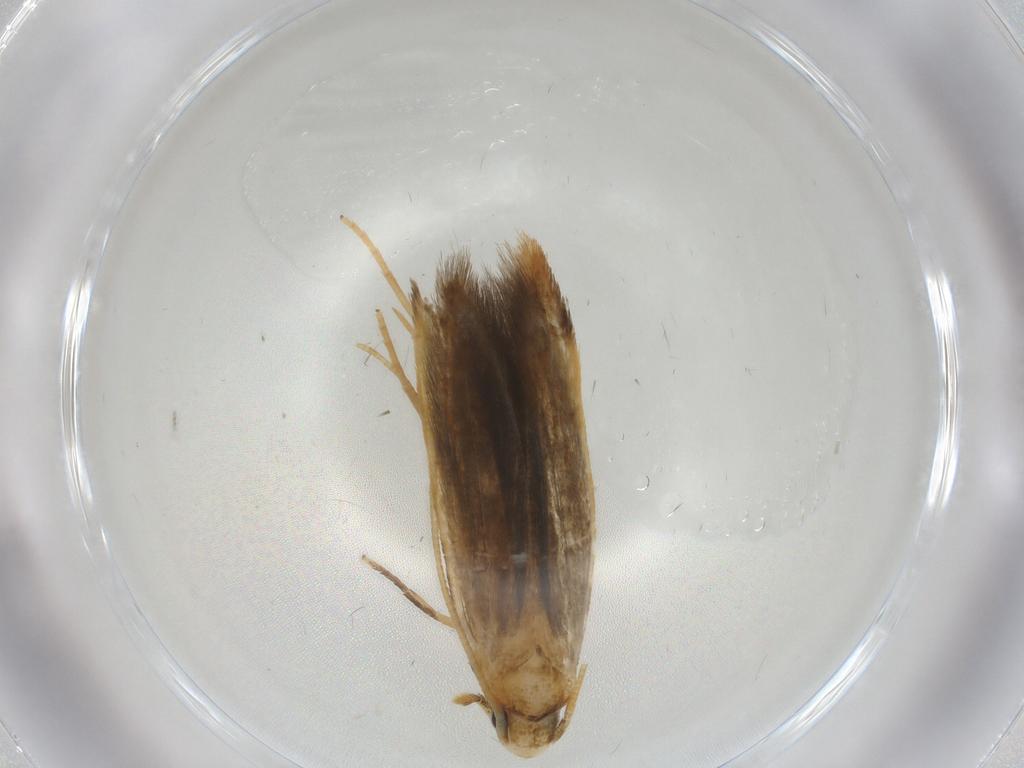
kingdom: Animalia
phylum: Arthropoda
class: Insecta
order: Lepidoptera
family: Tineidae
